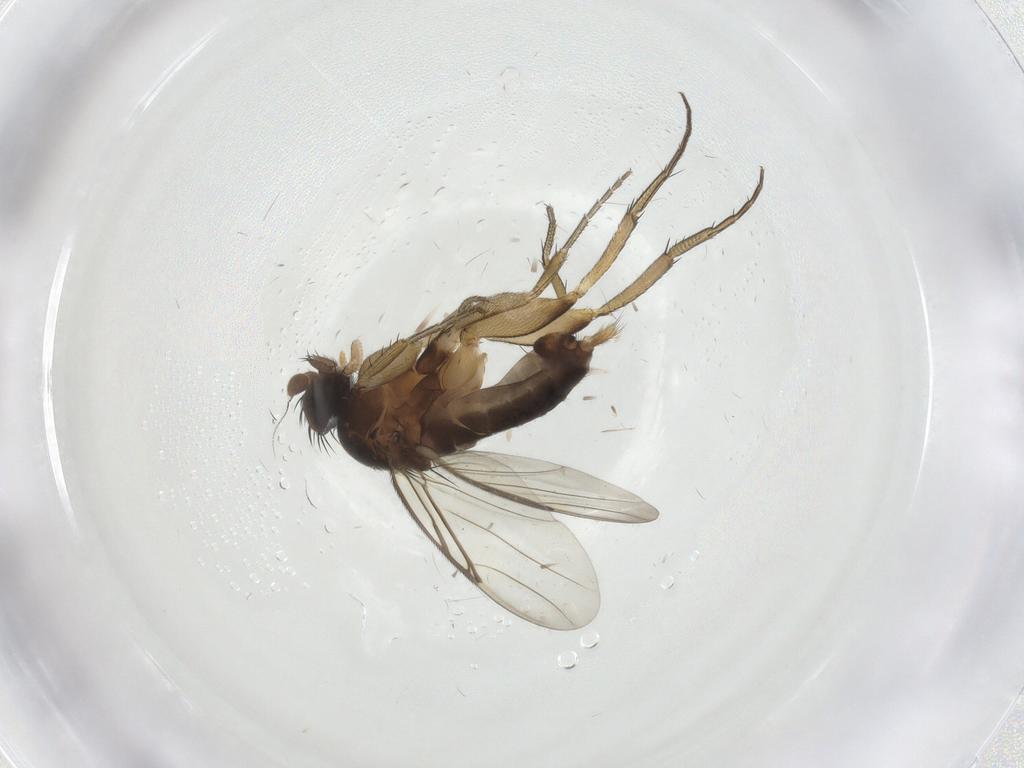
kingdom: Animalia
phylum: Arthropoda
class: Insecta
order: Diptera
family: Phoridae
